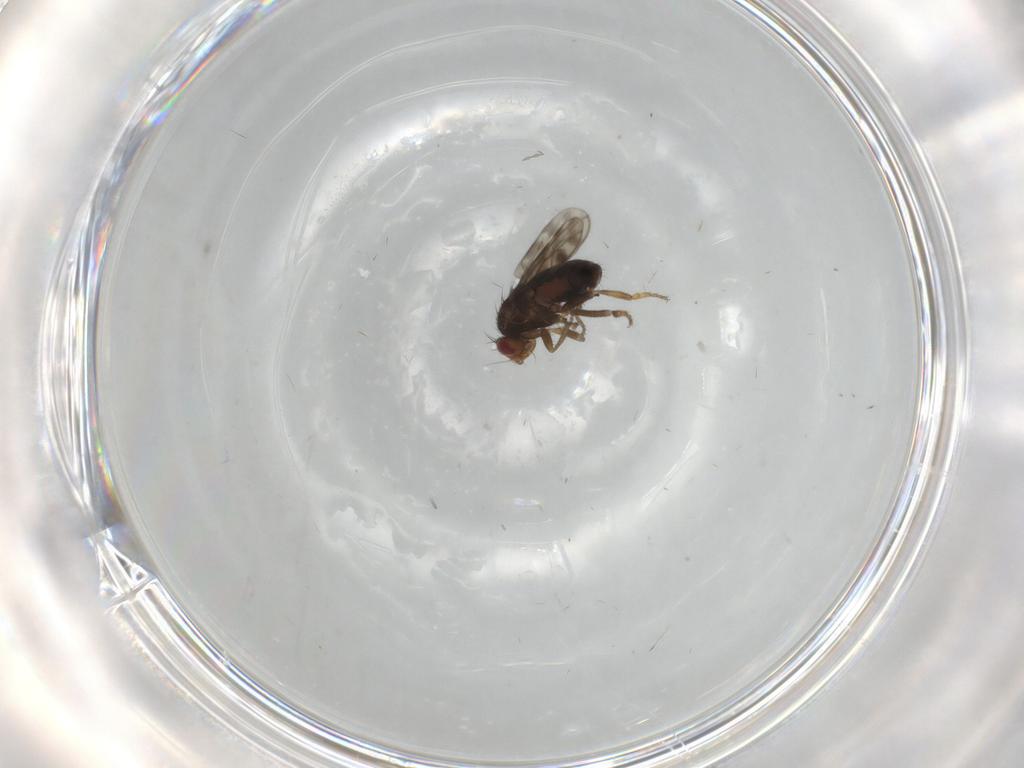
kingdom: Animalia
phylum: Arthropoda
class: Insecta
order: Diptera
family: Sphaeroceridae
